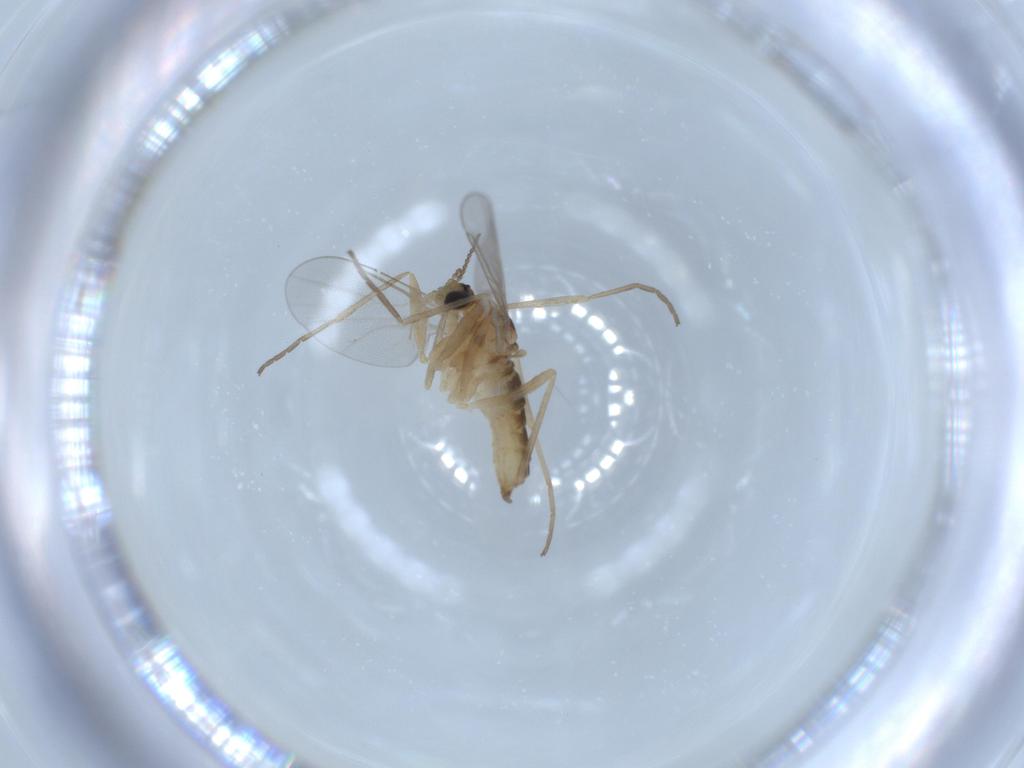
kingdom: Animalia
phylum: Arthropoda
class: Insecta
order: Diptera
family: Cecidomyiidae
